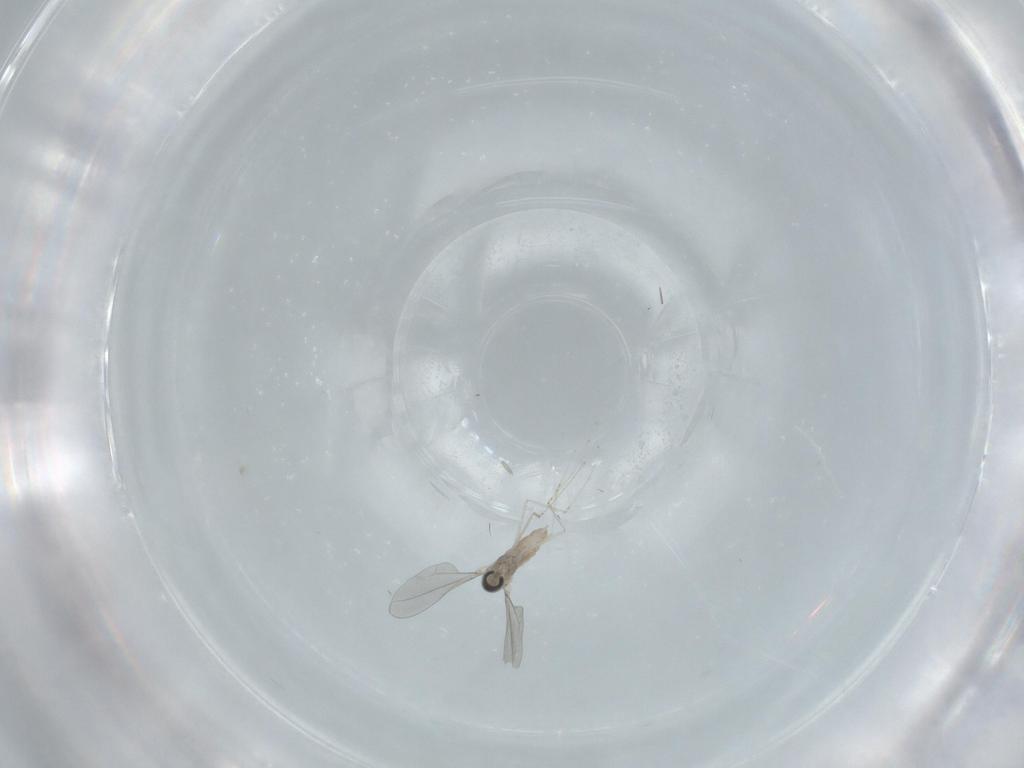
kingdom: Animalia
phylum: Arthropoda
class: Insecta
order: Diptera
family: Cecidomyiidae
